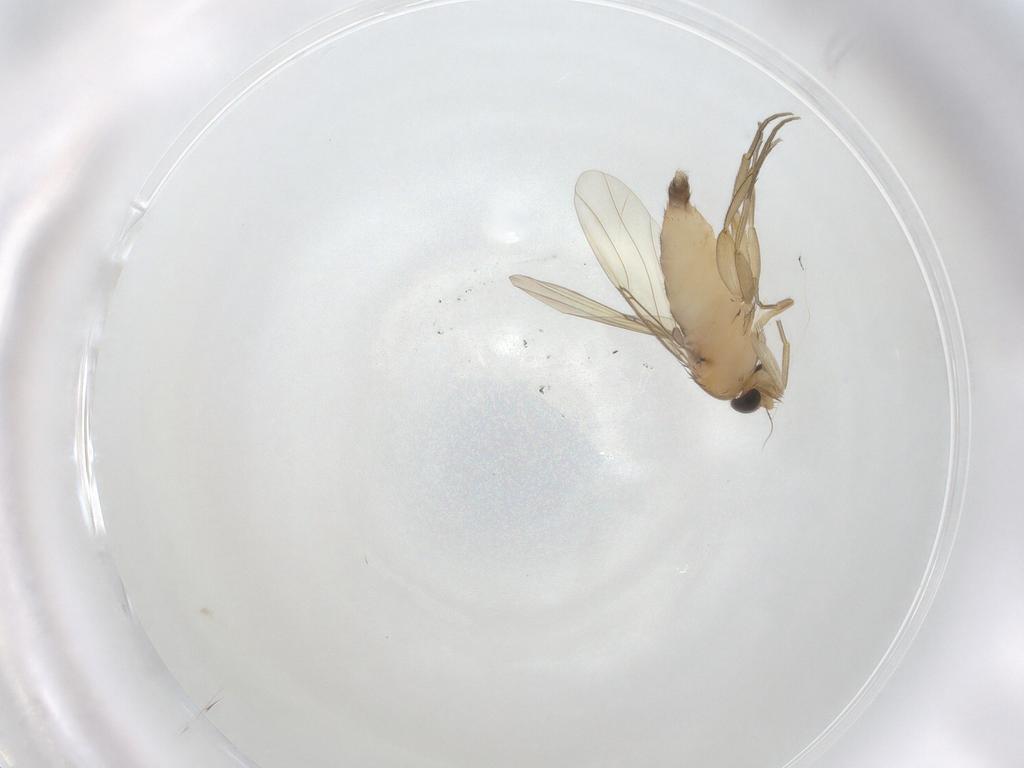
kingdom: Animalia
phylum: Arthropoda
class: Insecta
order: Diptera
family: Phoridae
